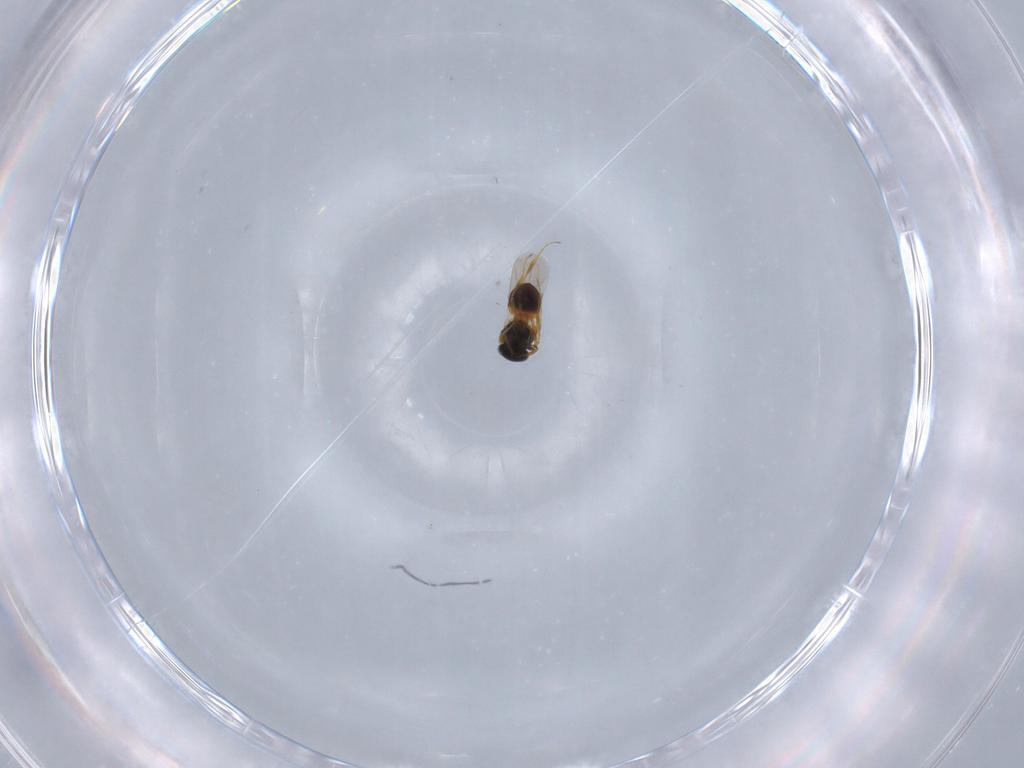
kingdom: Animalia
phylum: Arthropoda
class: Insecta
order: Hymenoptera
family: Platygastridae
